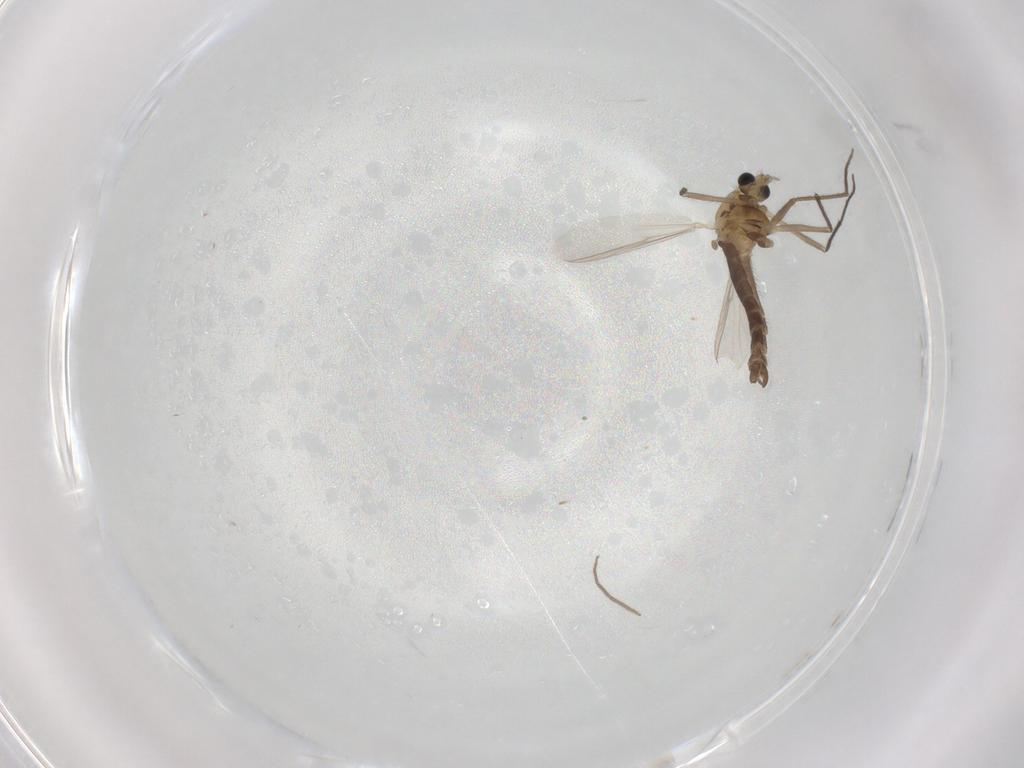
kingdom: Animalia
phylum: Arthropoda
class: Insecta
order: Diptera
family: Chironomidae
